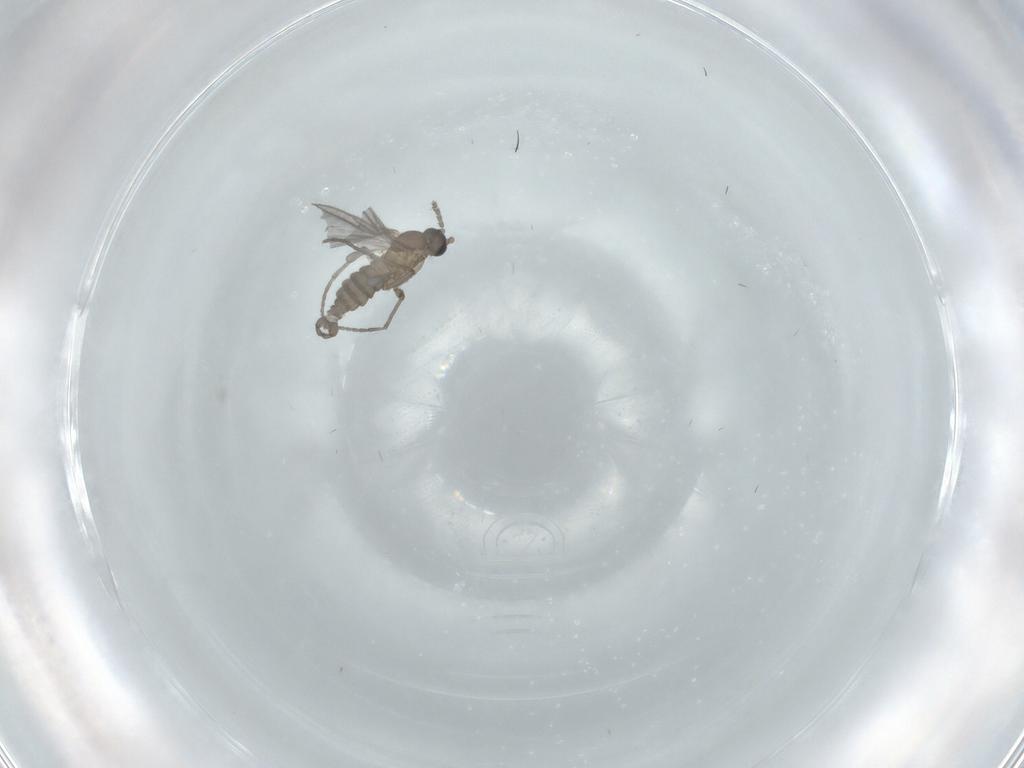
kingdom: Animalia
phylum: Arthropoda
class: Insecta
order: Diptera
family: Sciaridae
